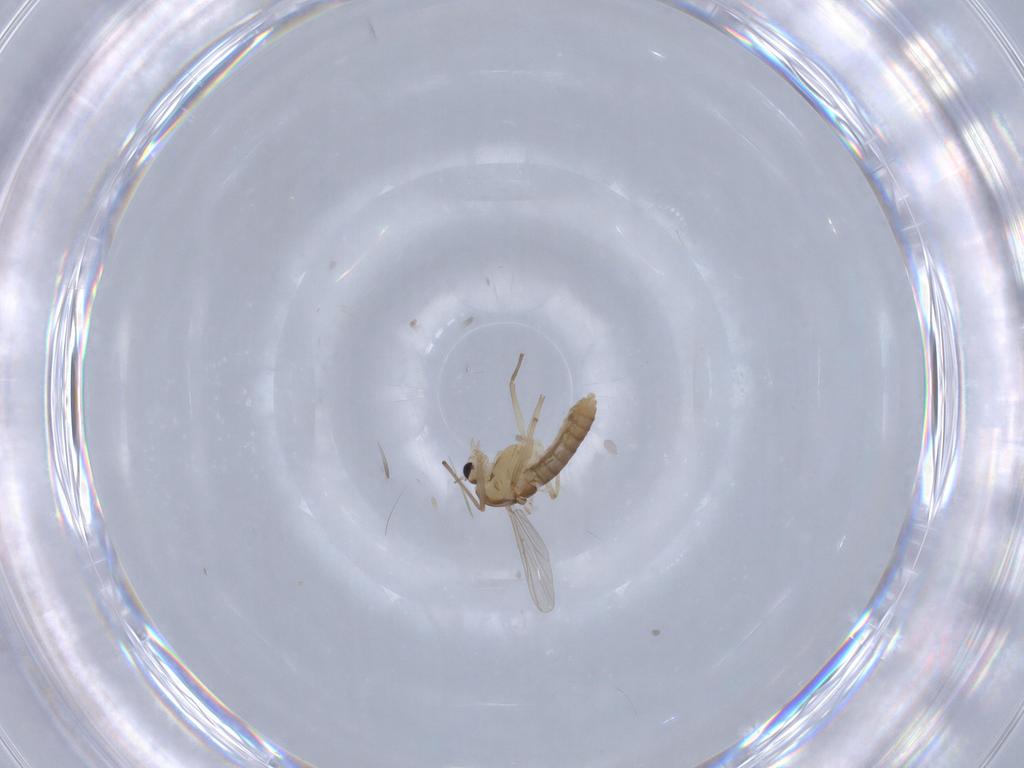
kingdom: Animalia
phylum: Arthropoda
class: Insecta
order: Diptera
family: Chironomidae
